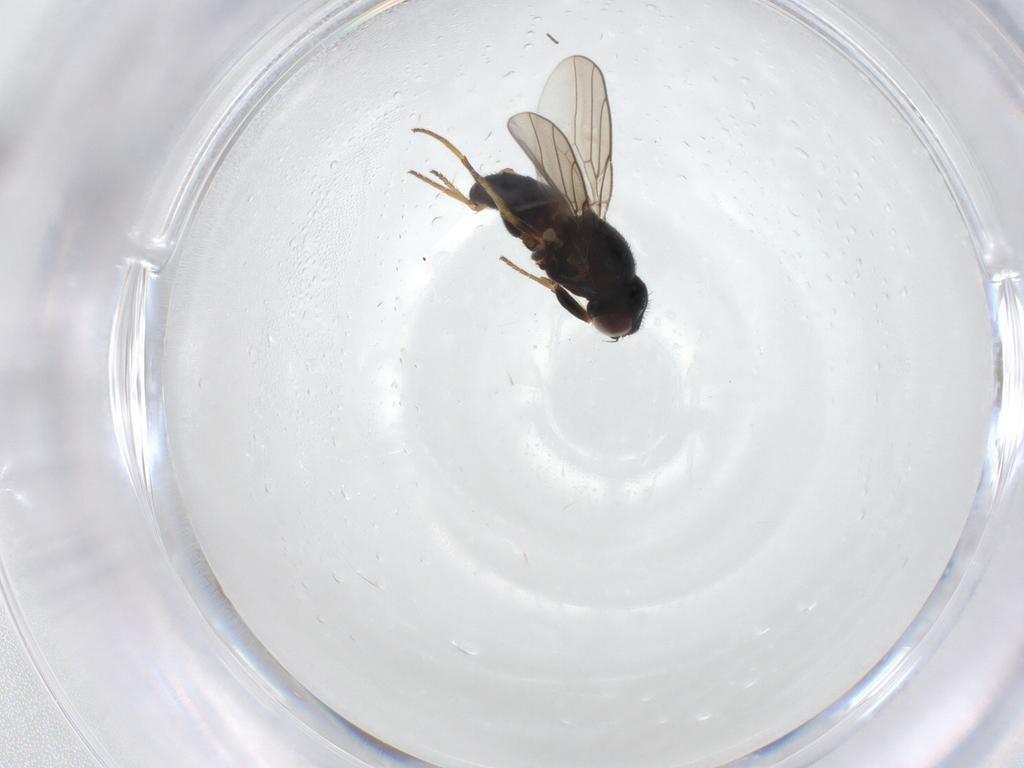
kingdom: Animalia
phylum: Arthropoda
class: Insecta
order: Diptera
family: Chloropidae
